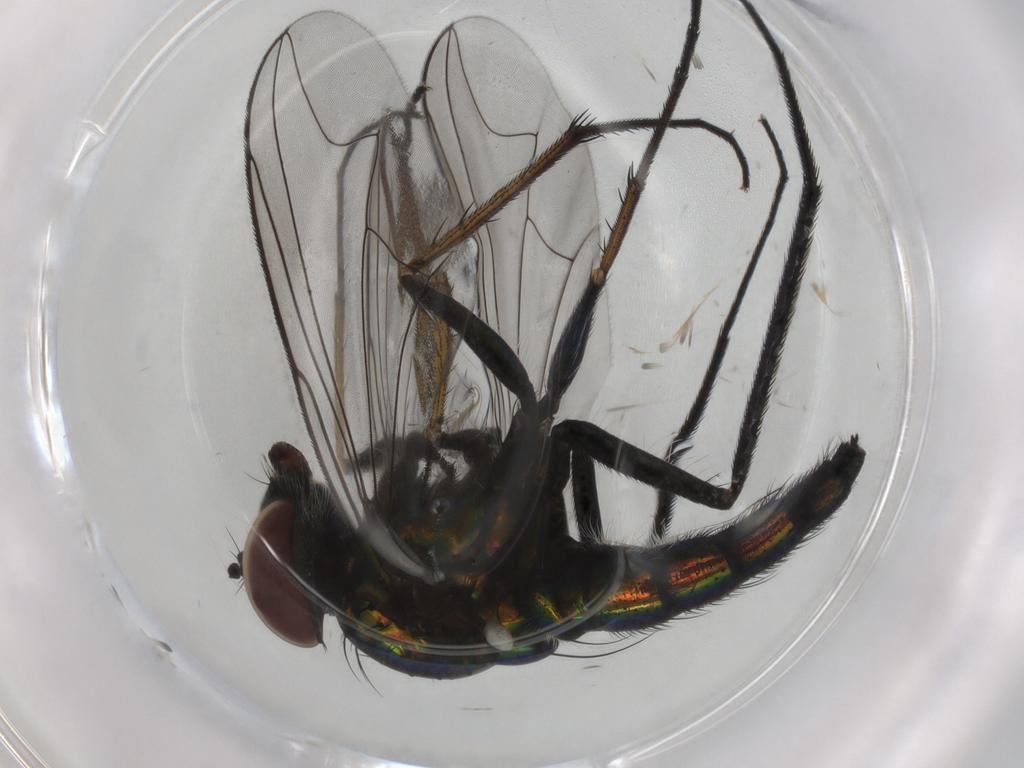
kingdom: Animalia
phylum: Arthropoda
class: Insecta
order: Diptera
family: Dolichopodidae
